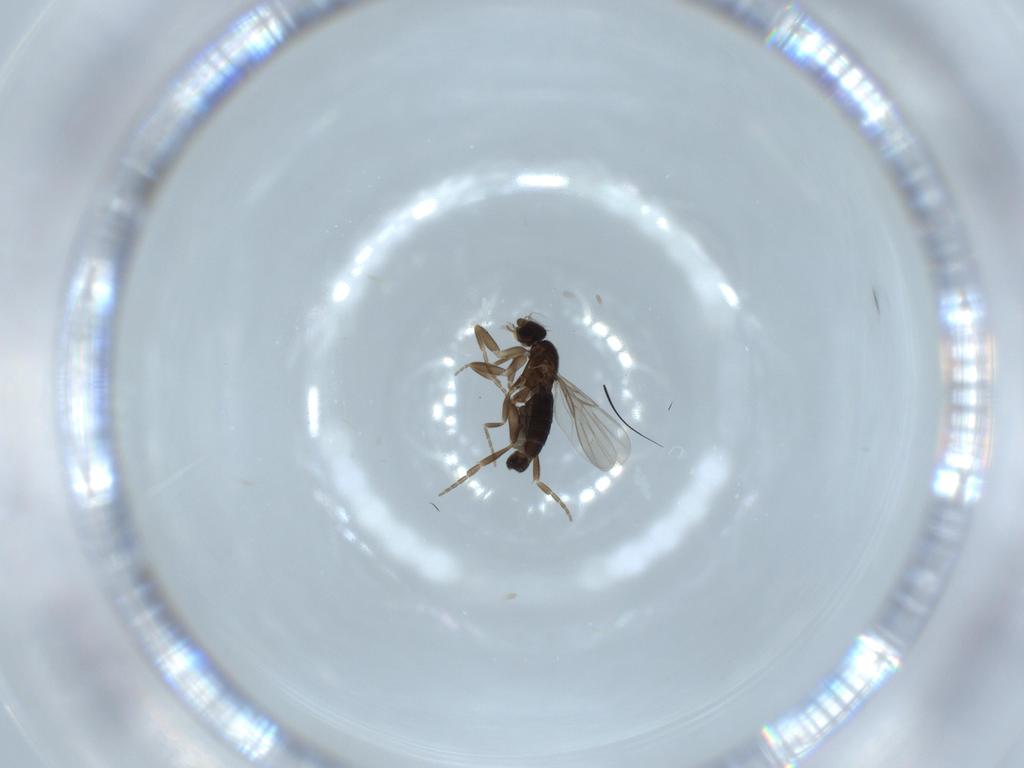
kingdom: Animalia
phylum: Arthropoda
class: Insecta
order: Diptera
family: Phoridae
